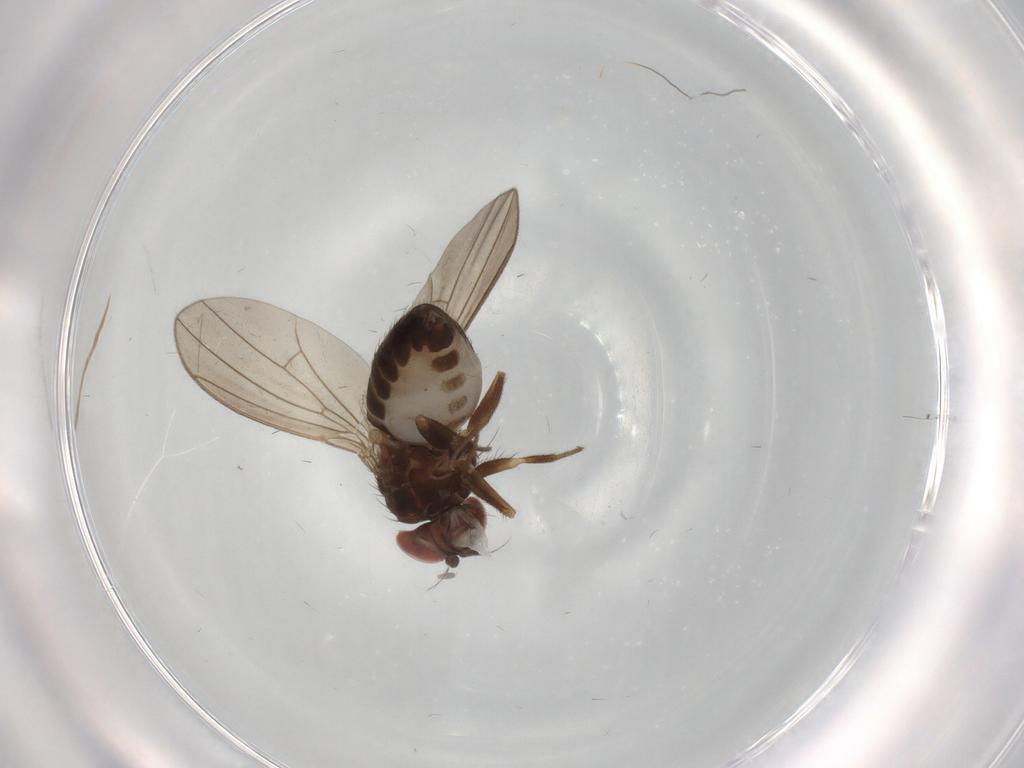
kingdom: Animalia
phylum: Arthropoda
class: Insecta
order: Diptera
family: Drosophilidae
